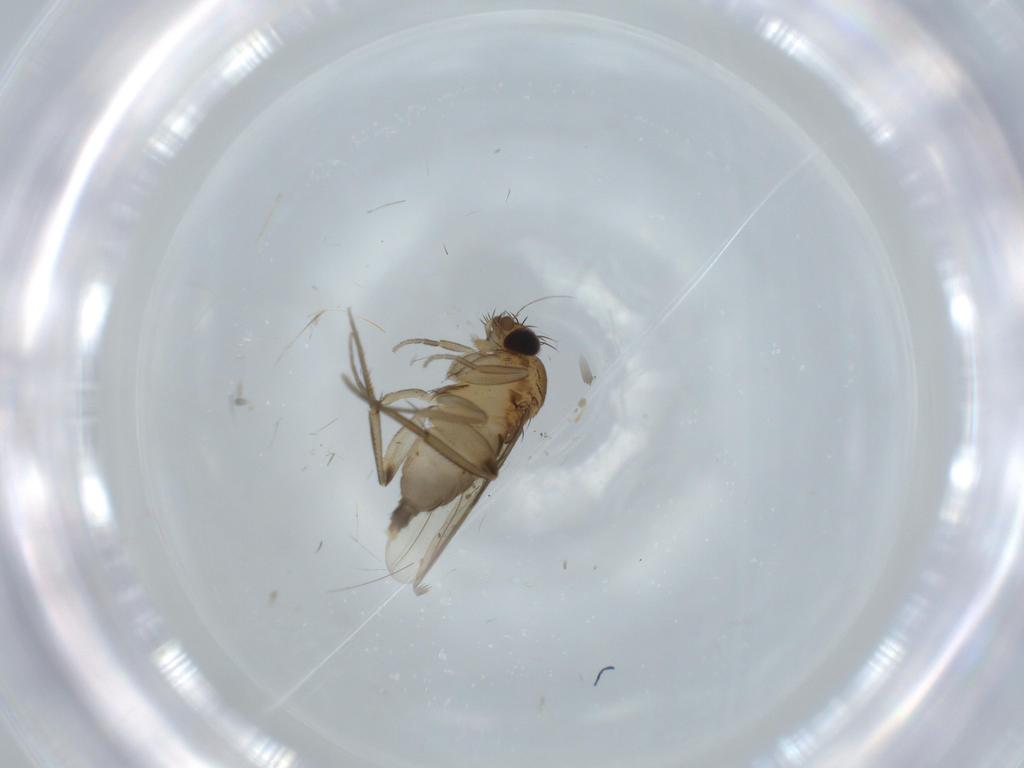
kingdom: Animalia
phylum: Arthropoda
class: Insecta
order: Diptera
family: Phoridae
